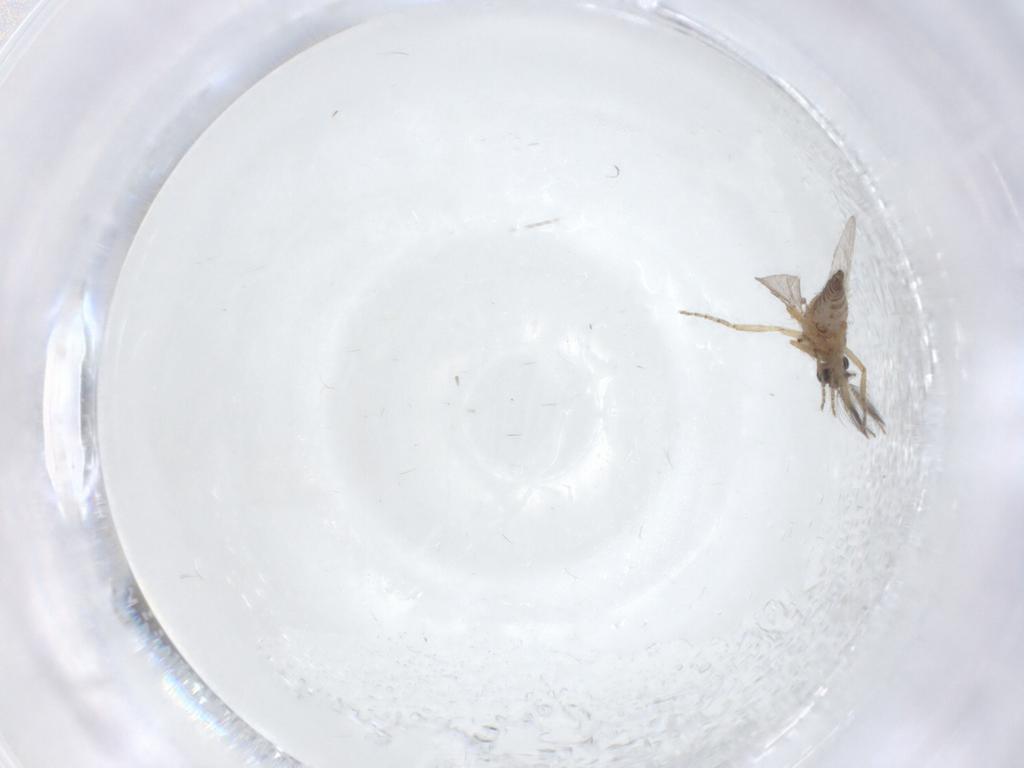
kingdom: Animalia
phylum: Arthropoda
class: Insecta
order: Diptera
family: Ceratopogonidae
